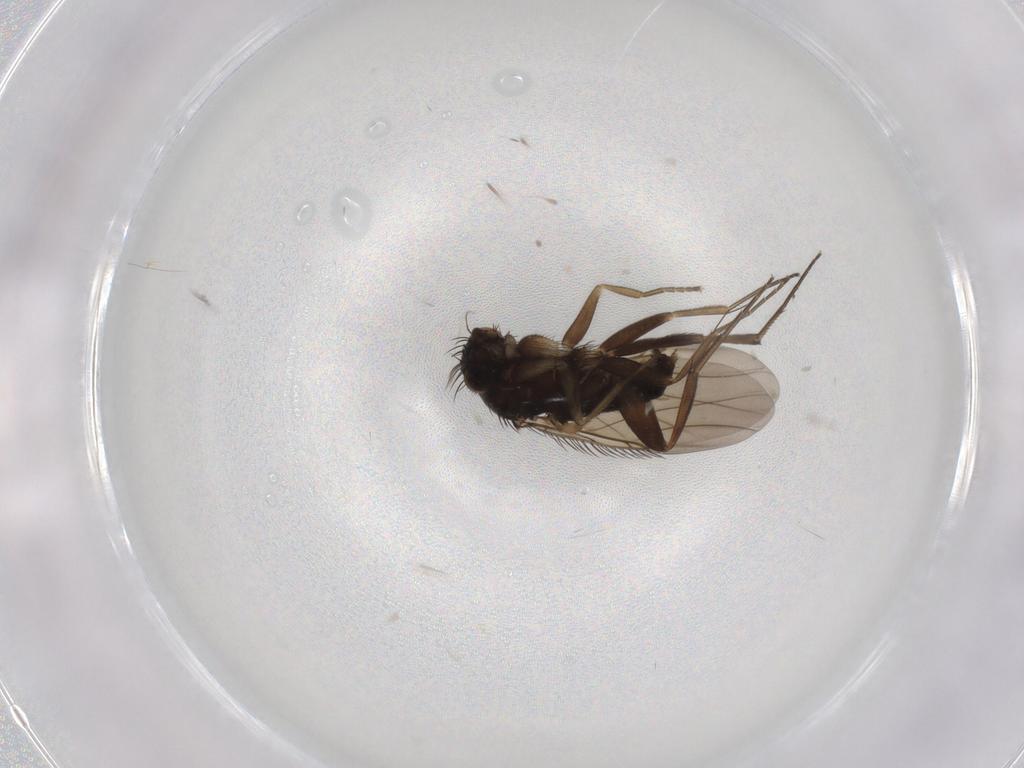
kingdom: Animalia
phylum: Arthropoda
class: Insecta
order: Diptera
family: Phoridae
